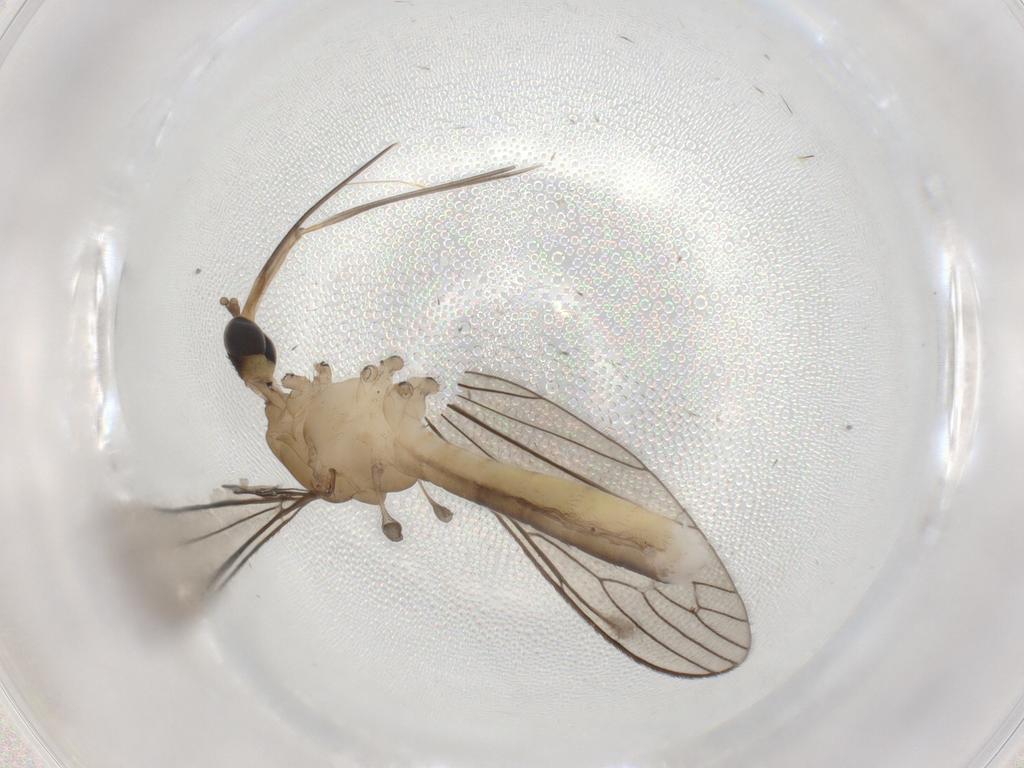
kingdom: Animalia
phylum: Arthropoda
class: Insecta
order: Diptera
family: Limoniidae
